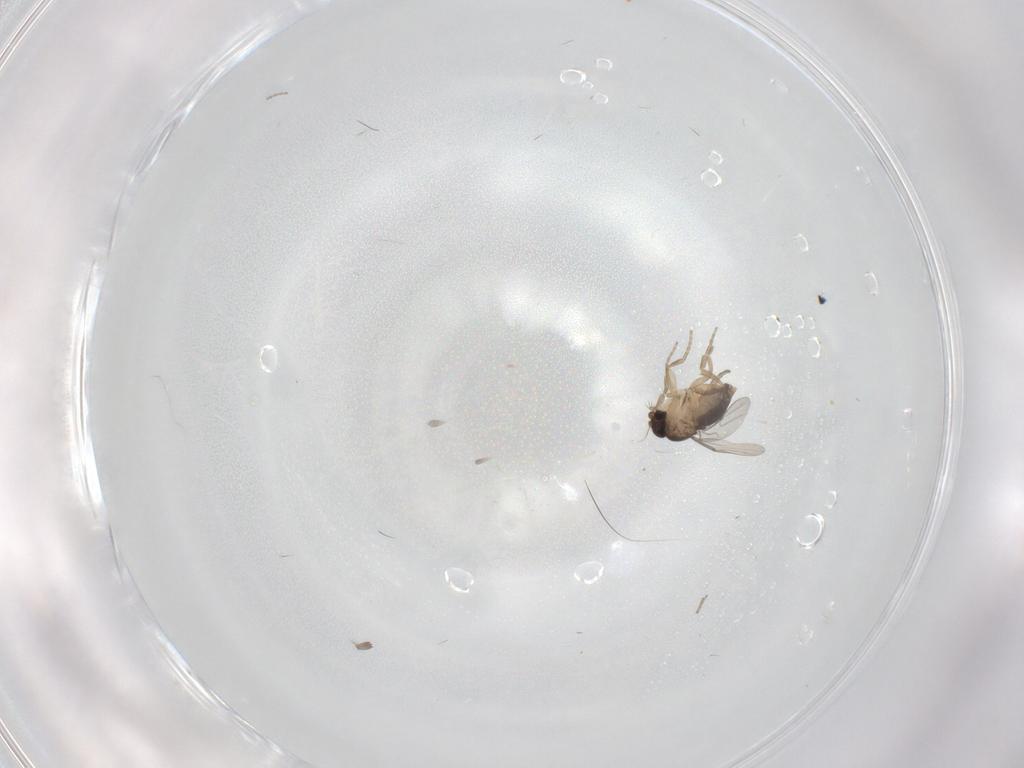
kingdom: Animalia
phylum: Arthropoda
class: Insecta
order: Diptera
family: Phoridae
